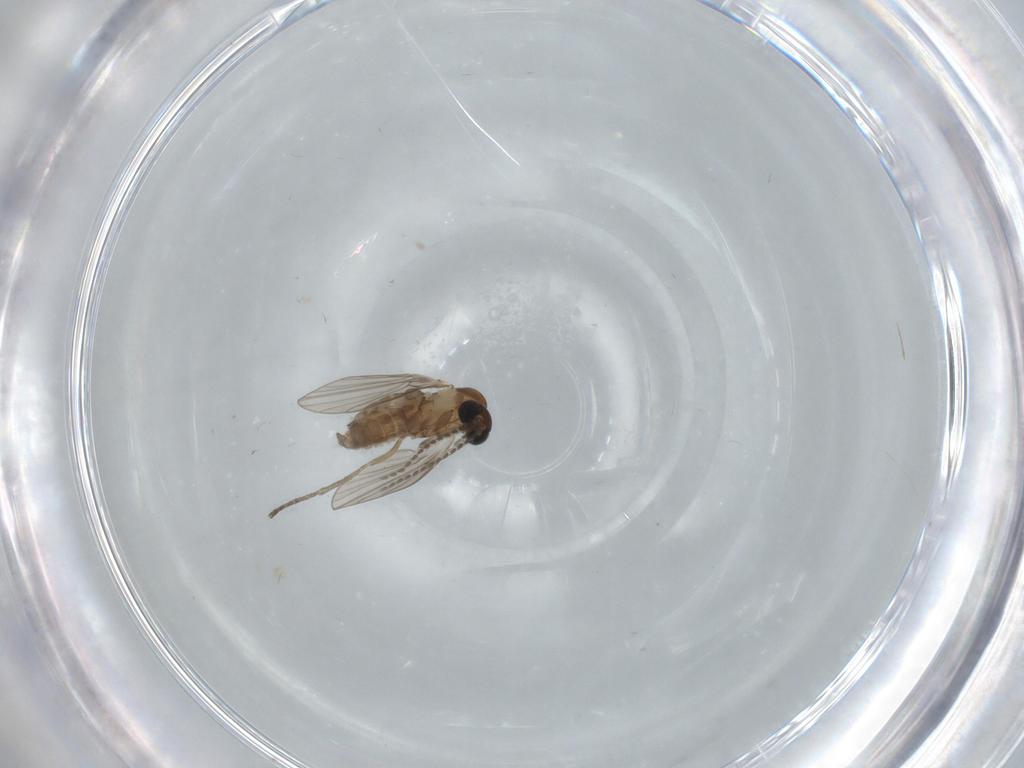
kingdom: Animalia
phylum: Arthropoda
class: Insecta
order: Diptera
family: Psychodidae
